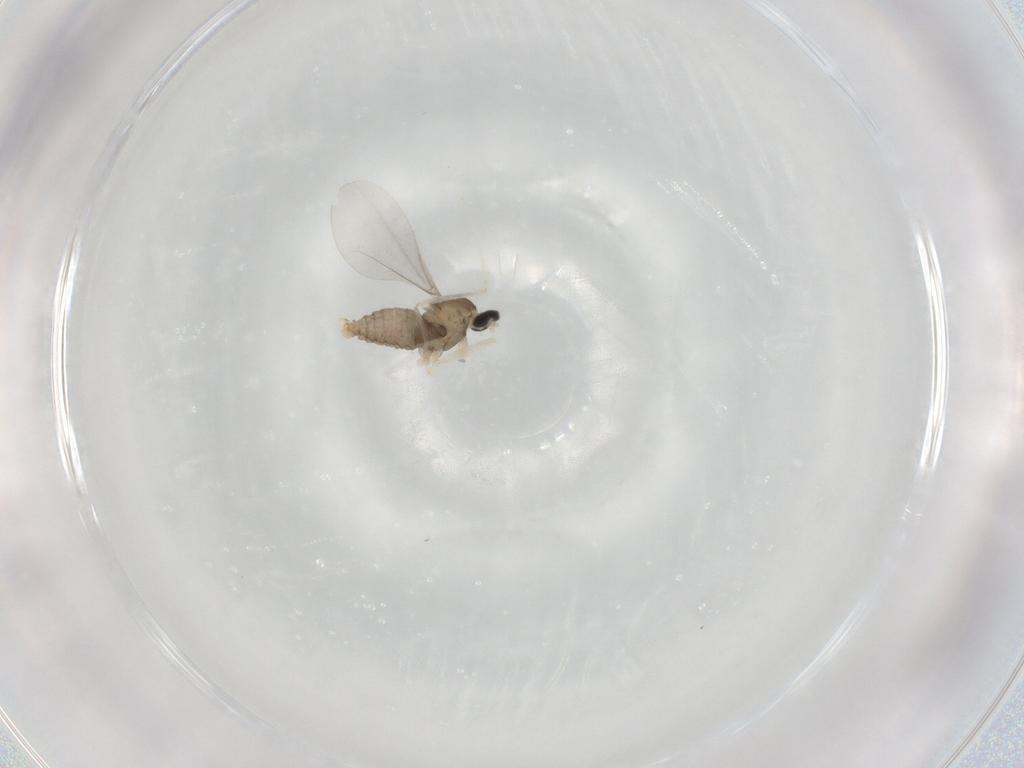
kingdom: Animalia
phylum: Arthropoda
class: Insecta
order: Diptera
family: Cecidomyiidae
